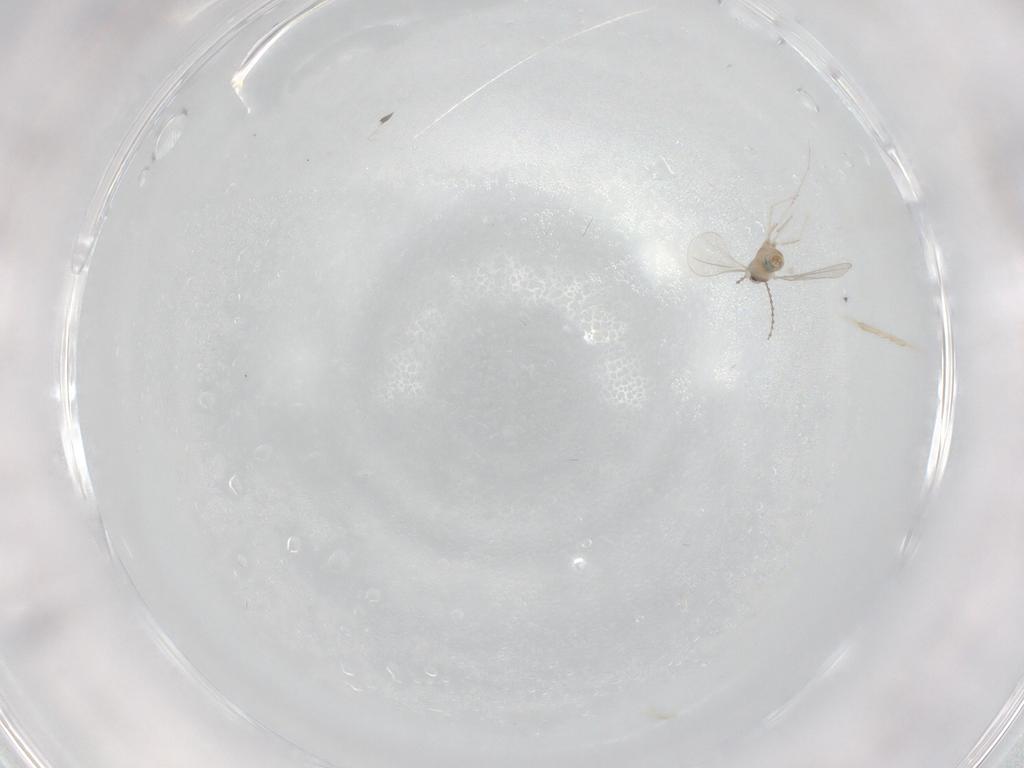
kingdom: Animalia
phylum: Arthropoda
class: Insecta
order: Diptera
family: Cecidomyiidae
